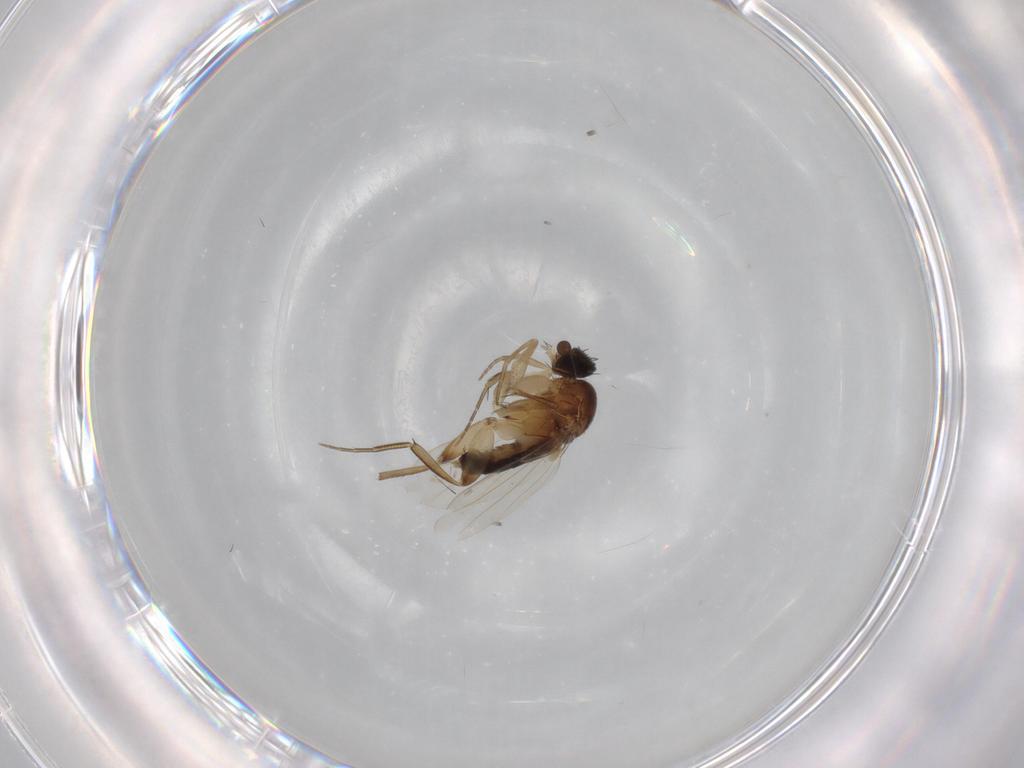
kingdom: Animalia
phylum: Arthropoda
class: Insecta
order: Diptera
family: Phoridae
